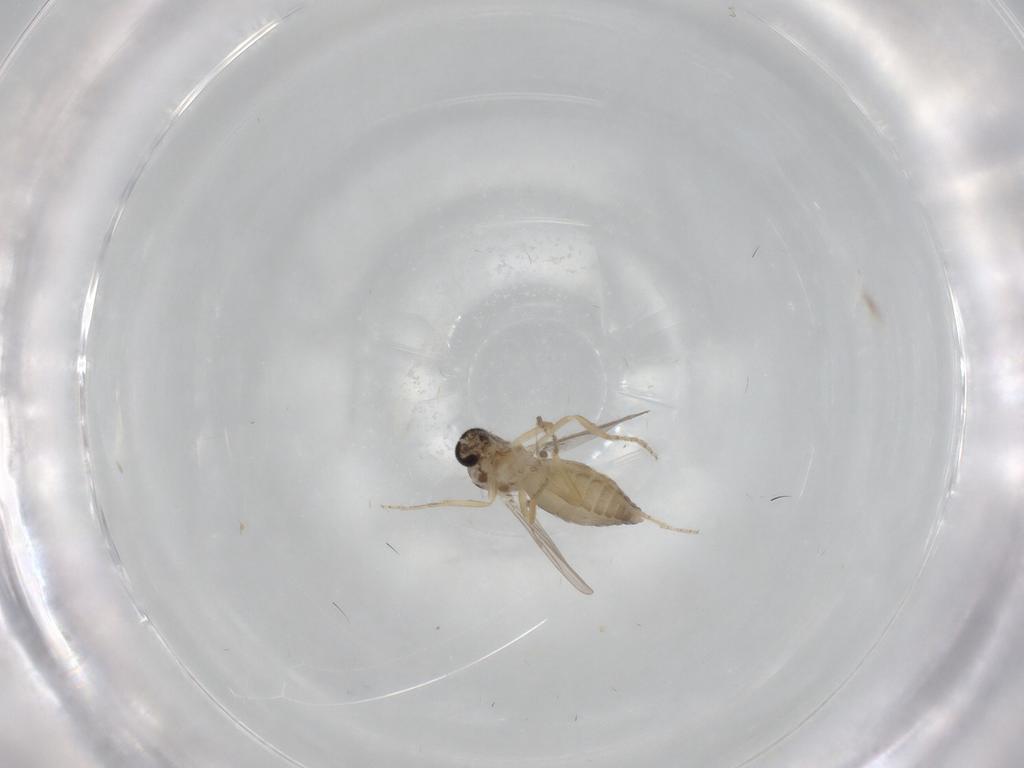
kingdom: Animalia
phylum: Arthropoda
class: Insecta
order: Diptera
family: Ceratopogonidae
